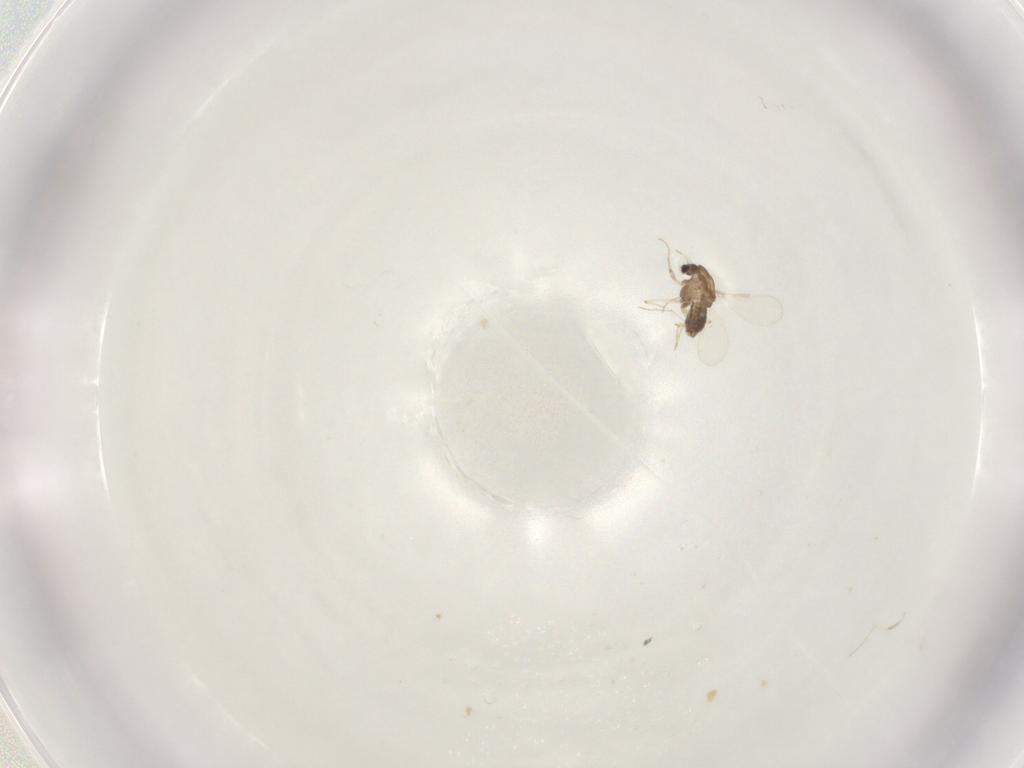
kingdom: Animalia
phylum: Arthropoda
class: Insecta
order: Diptera
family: Chironomidae
